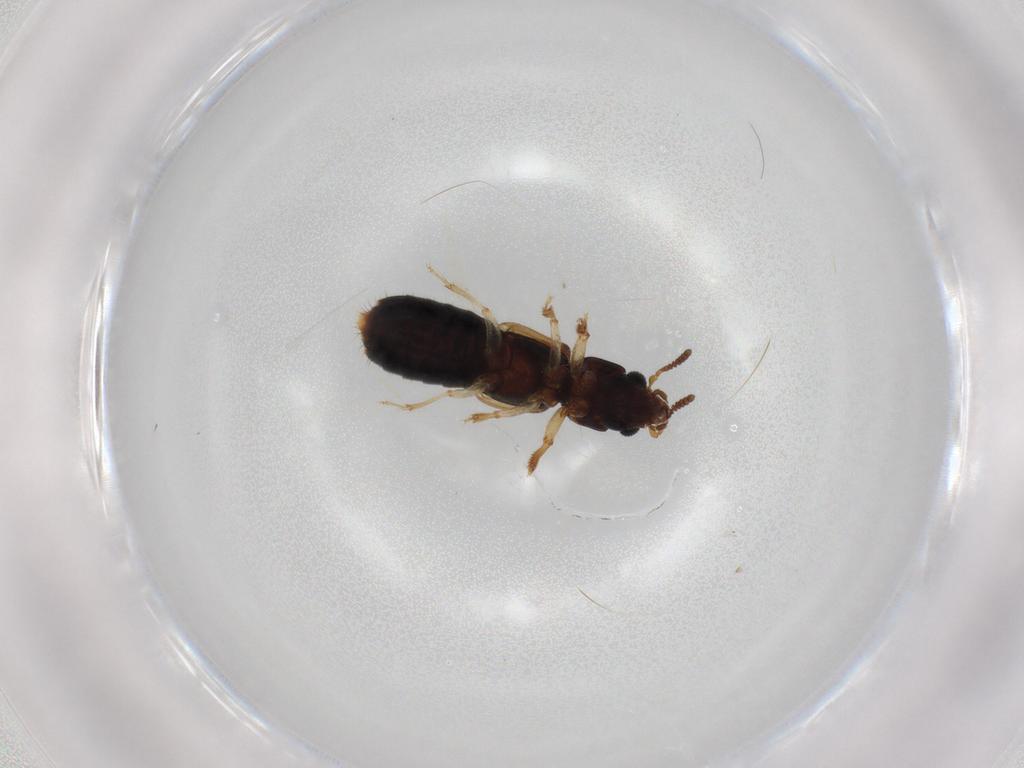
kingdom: Animalia
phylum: Arthropoda
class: Insecta
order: Coleoptera
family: Staphylinidae
